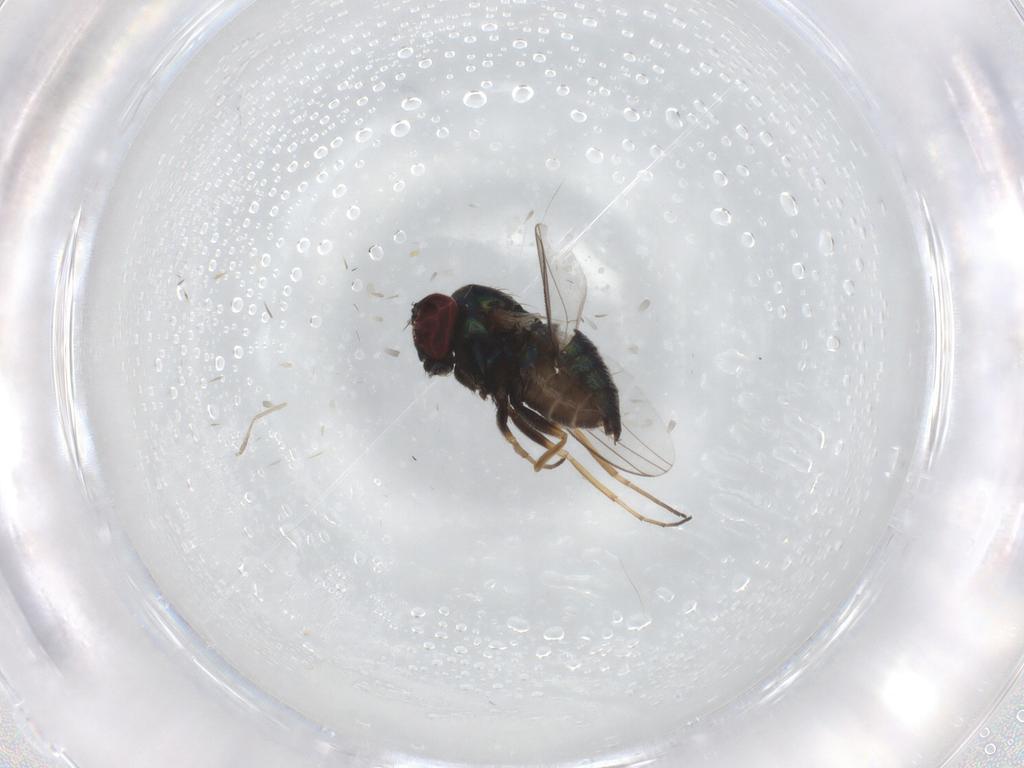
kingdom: Animalia
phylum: Arthropoda
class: Insecta
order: Diptera
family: Dolichopodidae
